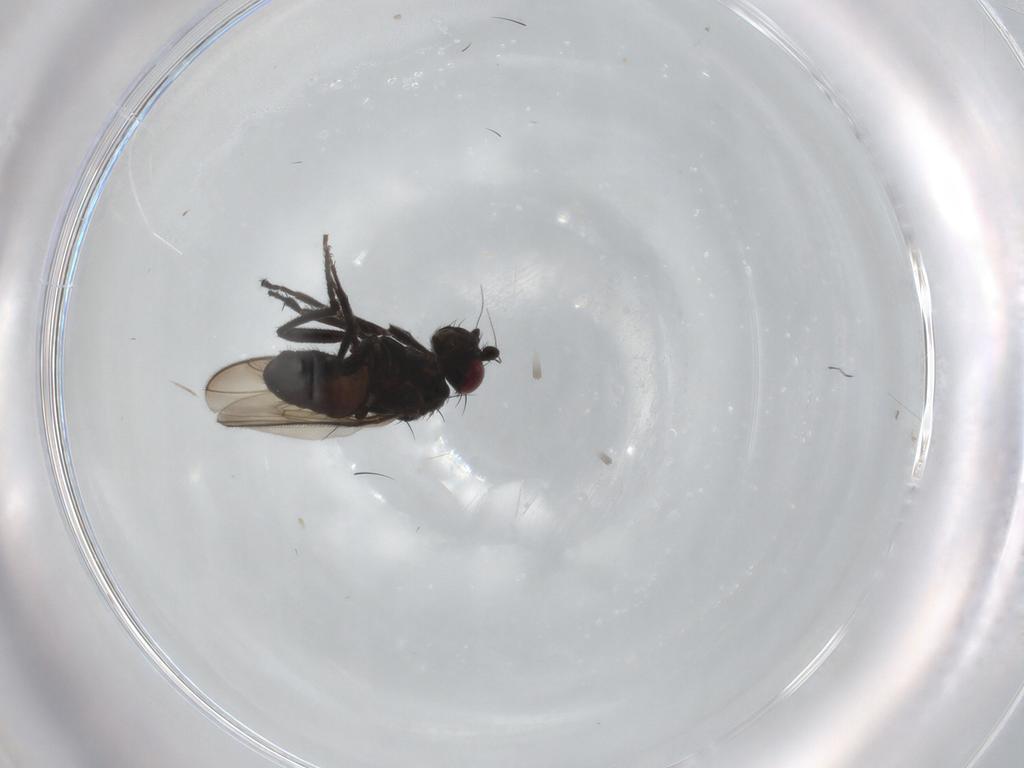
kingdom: Animalia
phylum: Arthropoda
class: Insecta
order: Diptera
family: Sphaeroceridae
